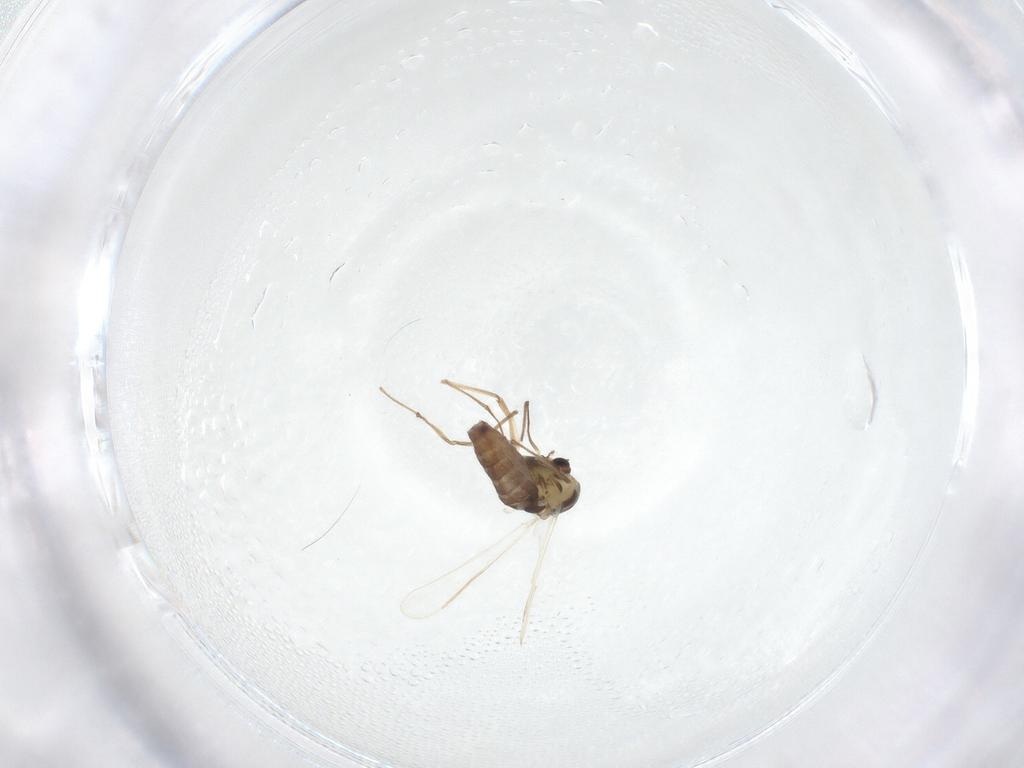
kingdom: Animalia
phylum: Arthropoda
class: Insecta
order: Diptera
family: Chironomidae
